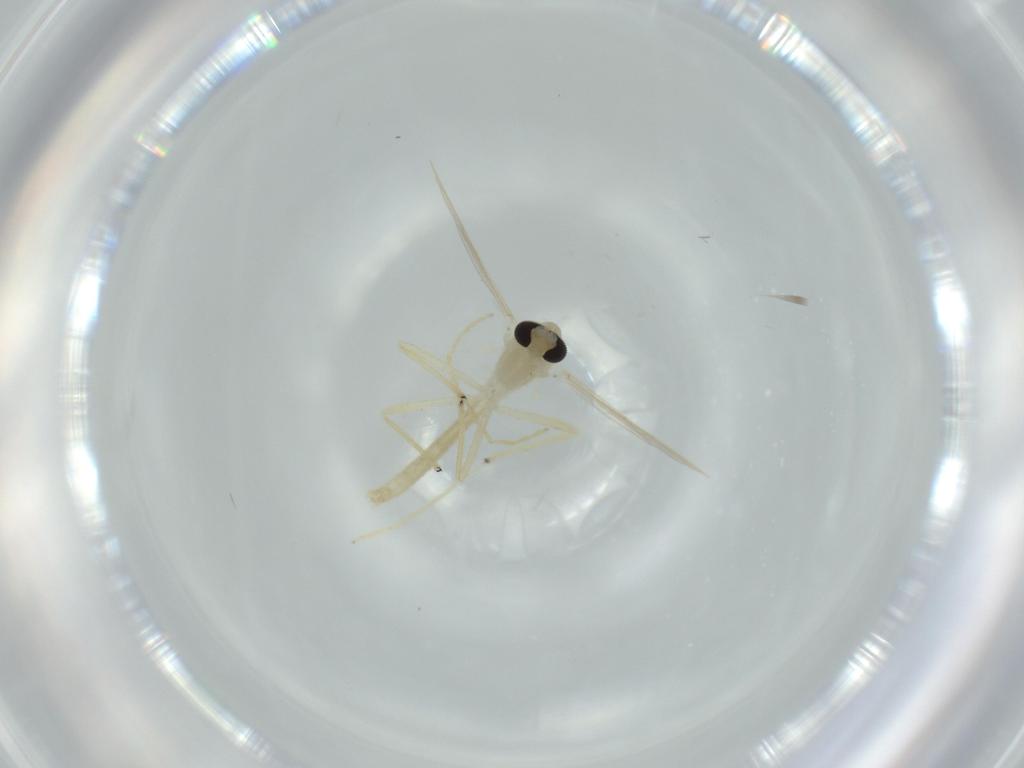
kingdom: Animalia
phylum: Arthropoda
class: Insecta
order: Diptera
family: Chironomidae
